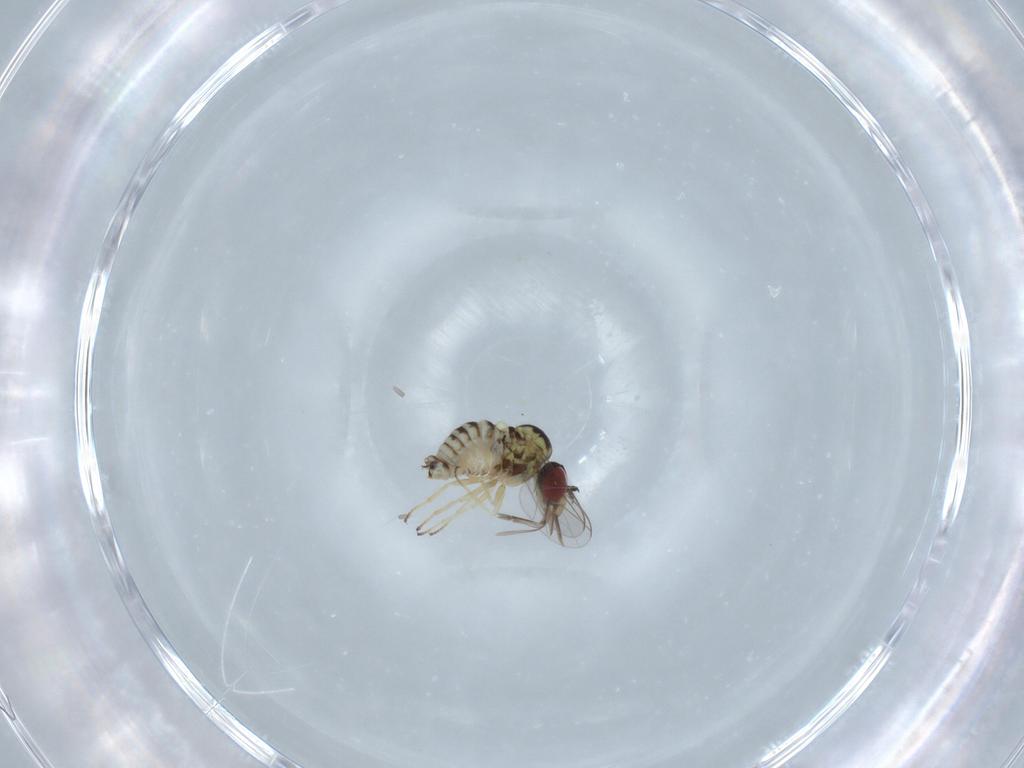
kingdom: Animalia
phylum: Arthropoda
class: Insecta
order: Diptera
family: Bombyliidae
